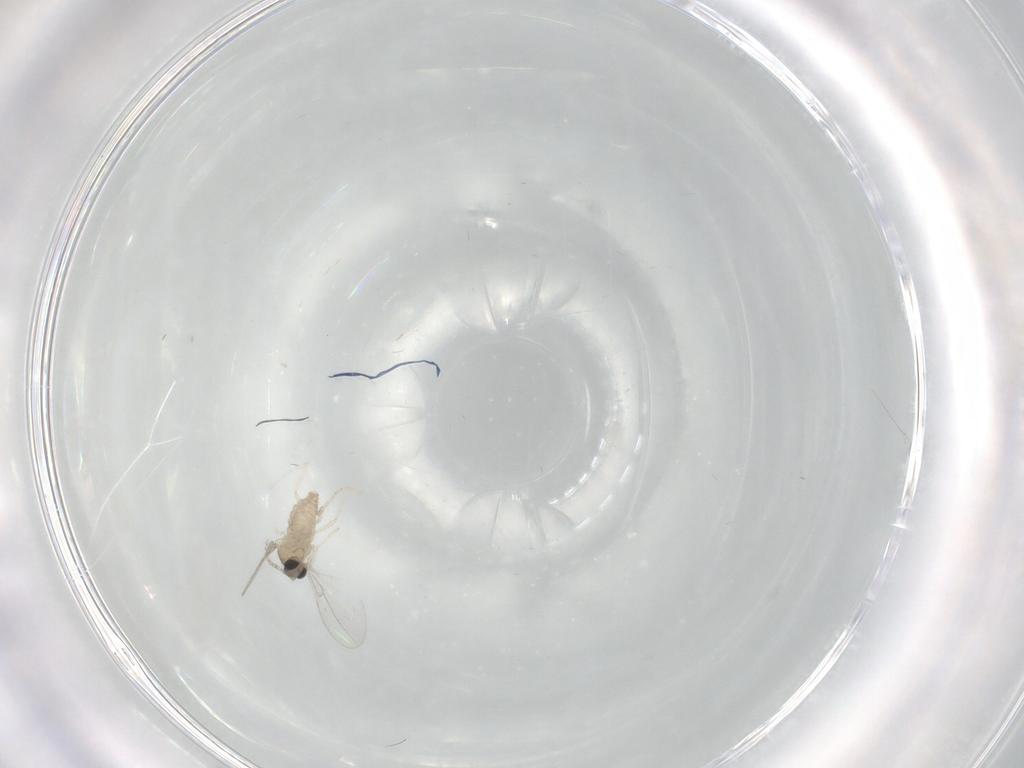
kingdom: Animalia
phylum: Arthropoda
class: Insecta
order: Diptera
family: Cecidomyiidae
